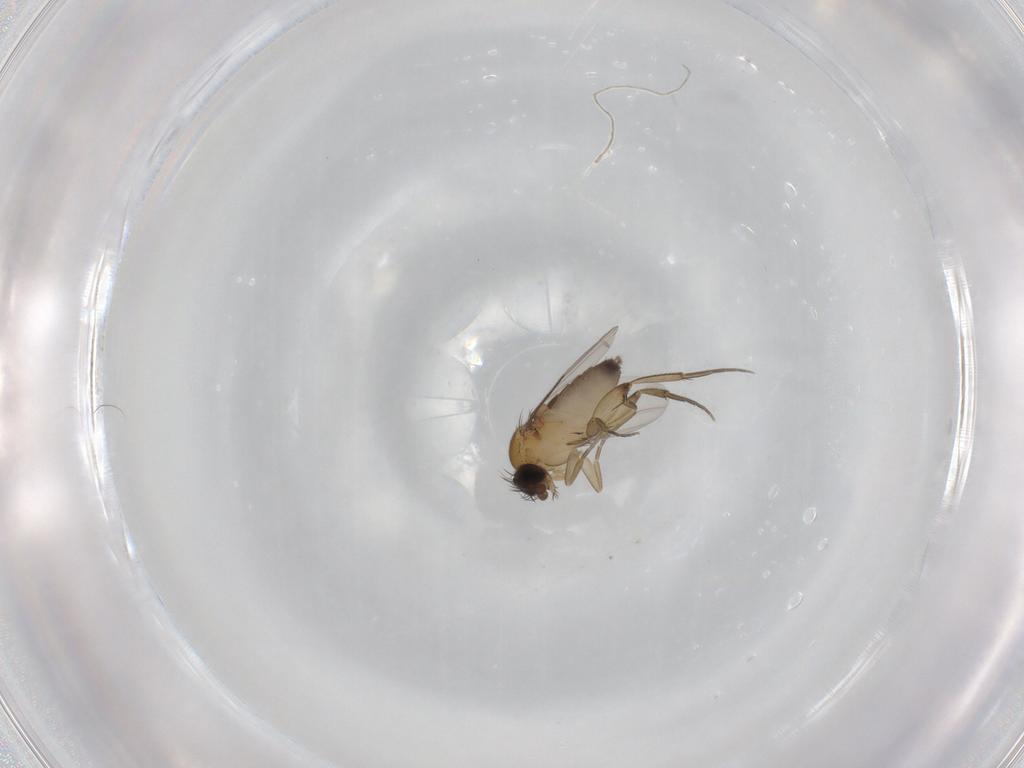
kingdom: Animalia
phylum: Arthropoda
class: Insecta
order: Diptera
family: Phoridae
